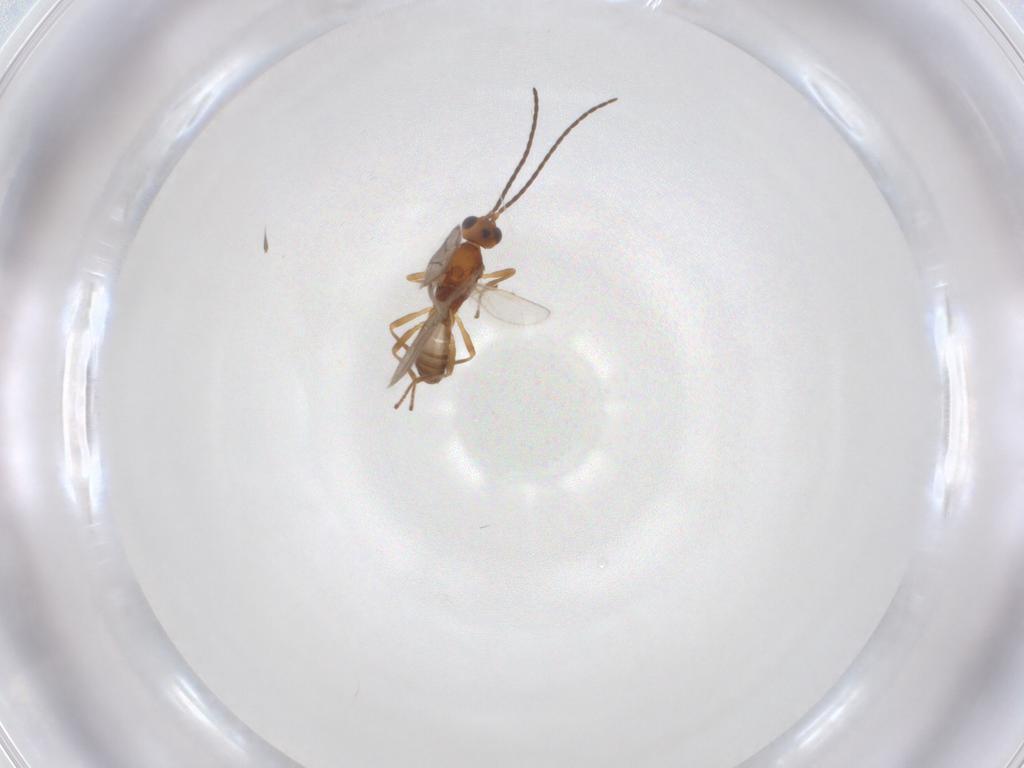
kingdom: Animalia
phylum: Arthropoda
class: Insecta
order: Hymenoptera
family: Braconidae
